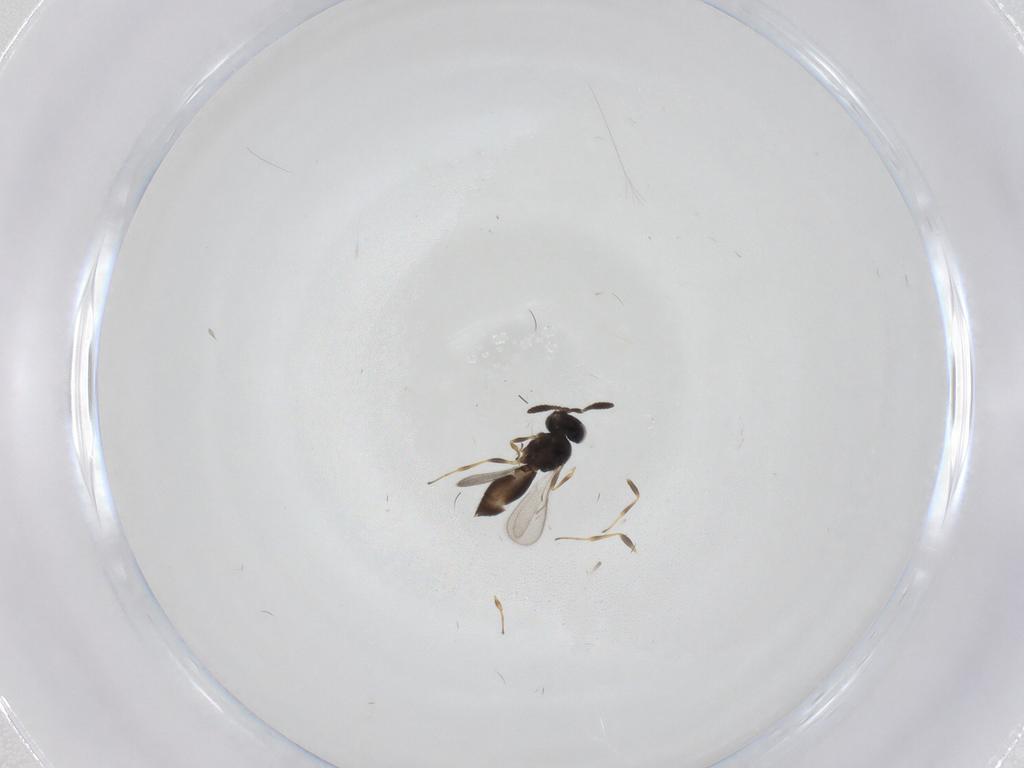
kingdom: Animalia
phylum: Arthropoda
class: Insecta
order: Hymenoptera
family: Scelionidae
